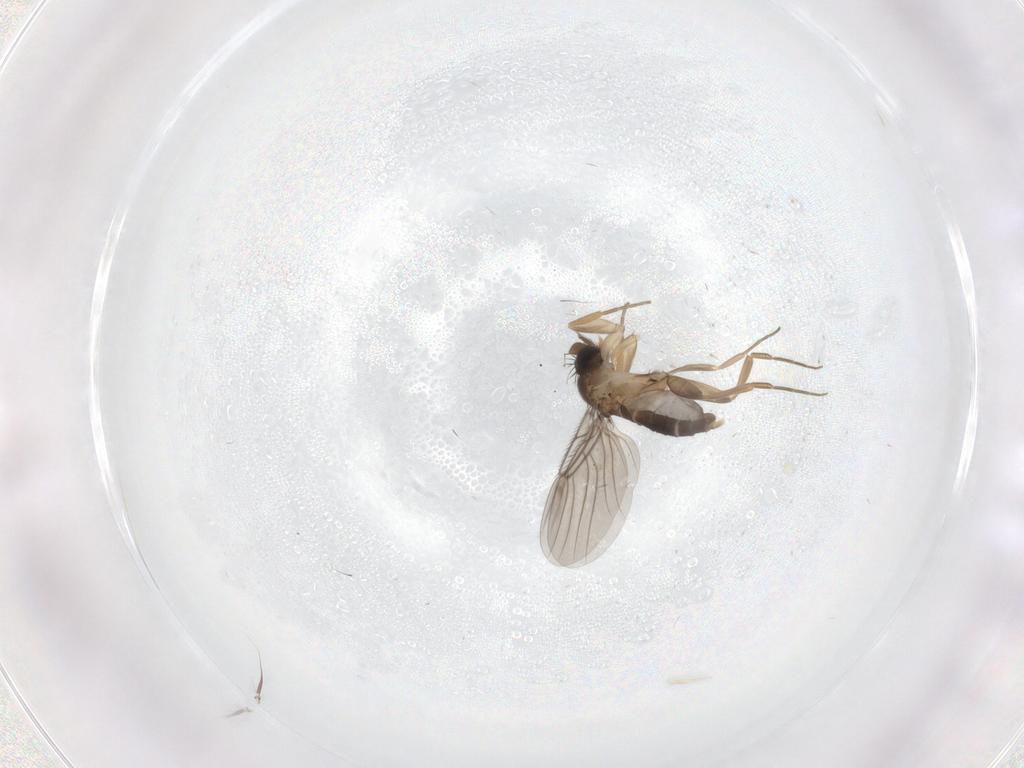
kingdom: Animalia
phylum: Arthropoda
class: Insecta
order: Diptera
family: Phoridae
